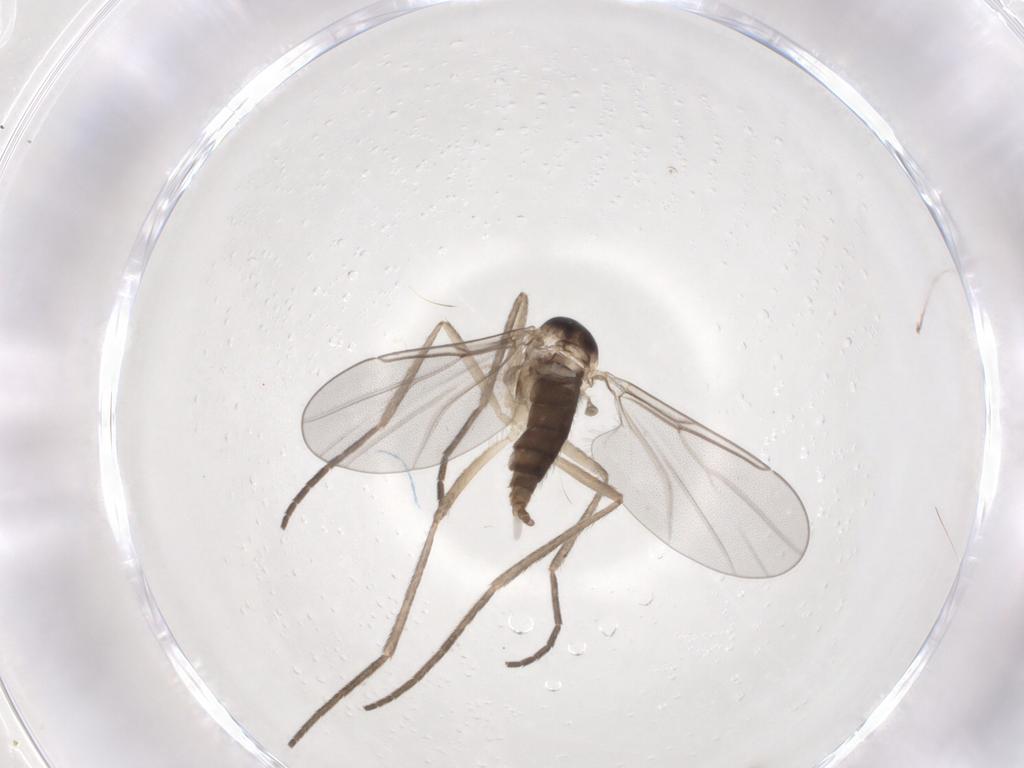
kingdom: Animalia
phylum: Arthropoda
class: Insecta
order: Diptera
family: Cecidomyiidae
